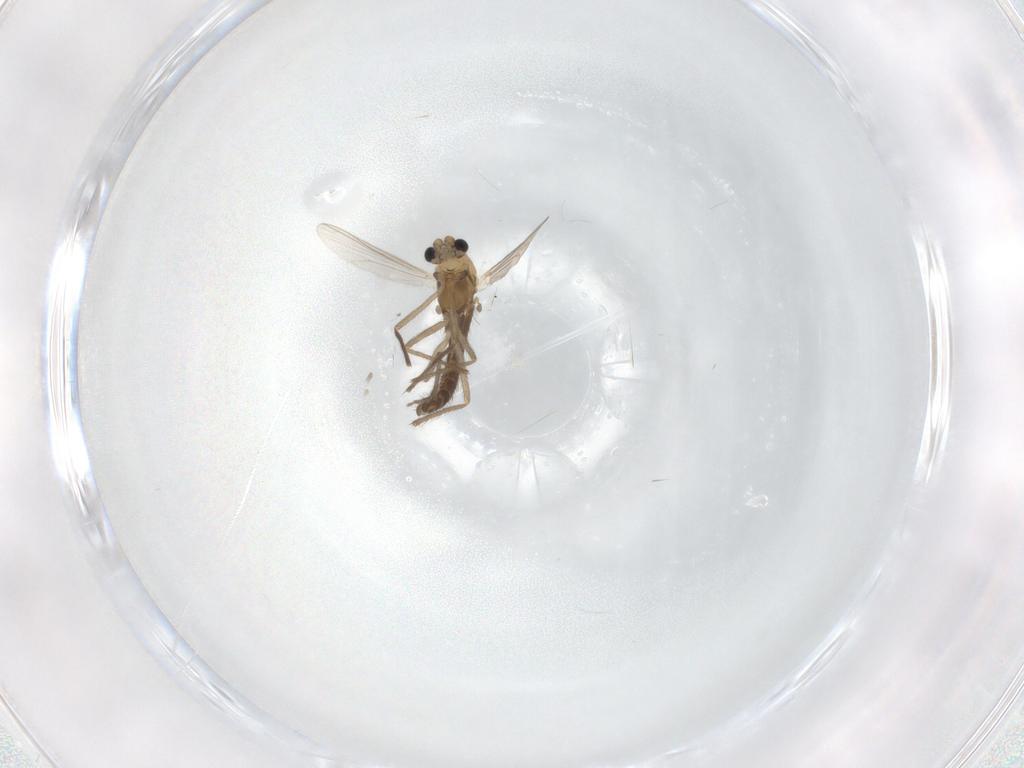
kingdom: Animalia
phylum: Arthropoda
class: Insecta
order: Diptera
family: Chironomidae
